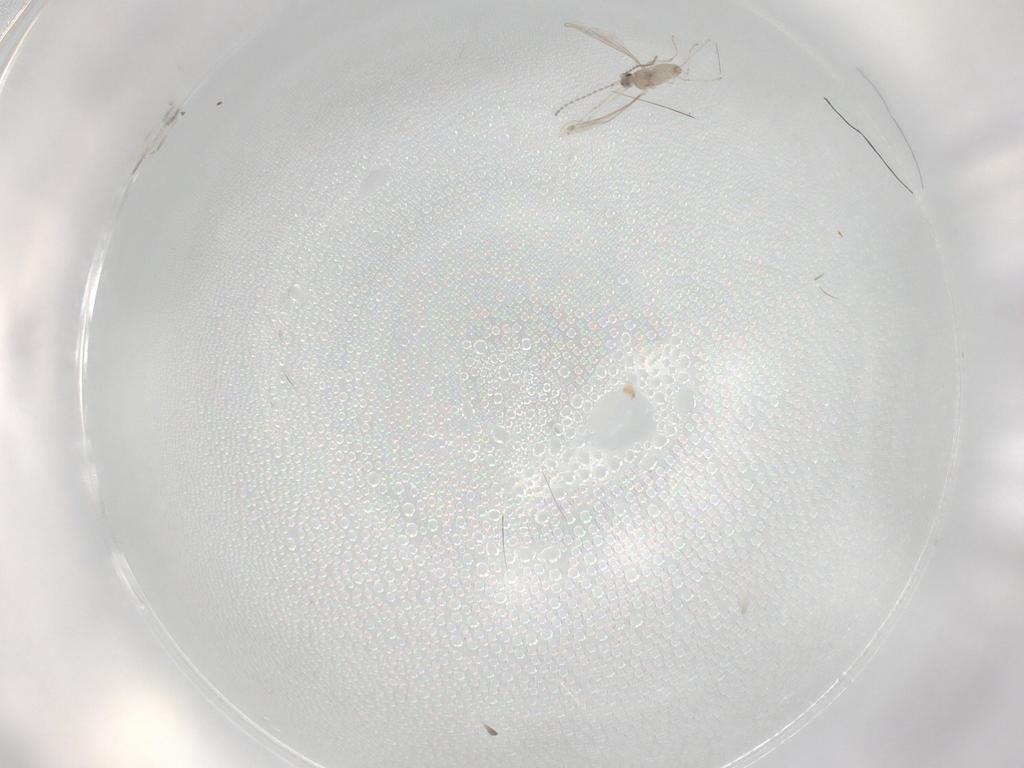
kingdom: Animalia
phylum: Arthropoda
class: Insecta
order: Diptera
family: Ceratopogonidae
